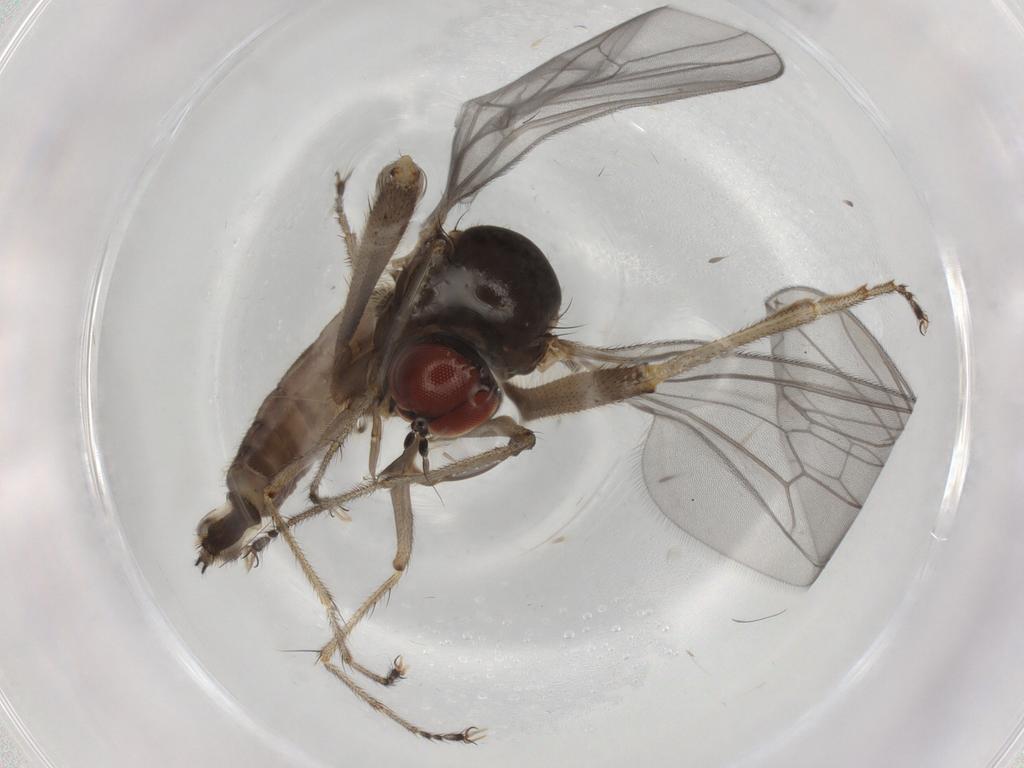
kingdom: Animalia
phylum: Arthropoda
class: Insecta
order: Diptera
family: Hybotidae
